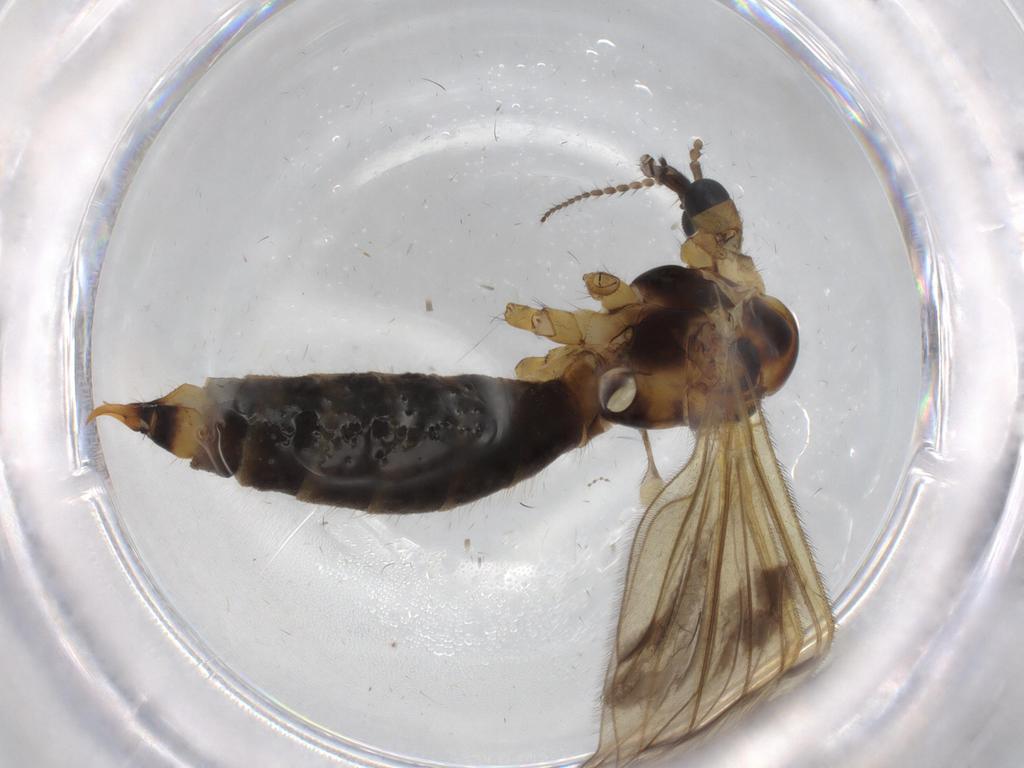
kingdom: Animalia
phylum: Arthropoda
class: Insecta
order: Diptera
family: Limoniidae
